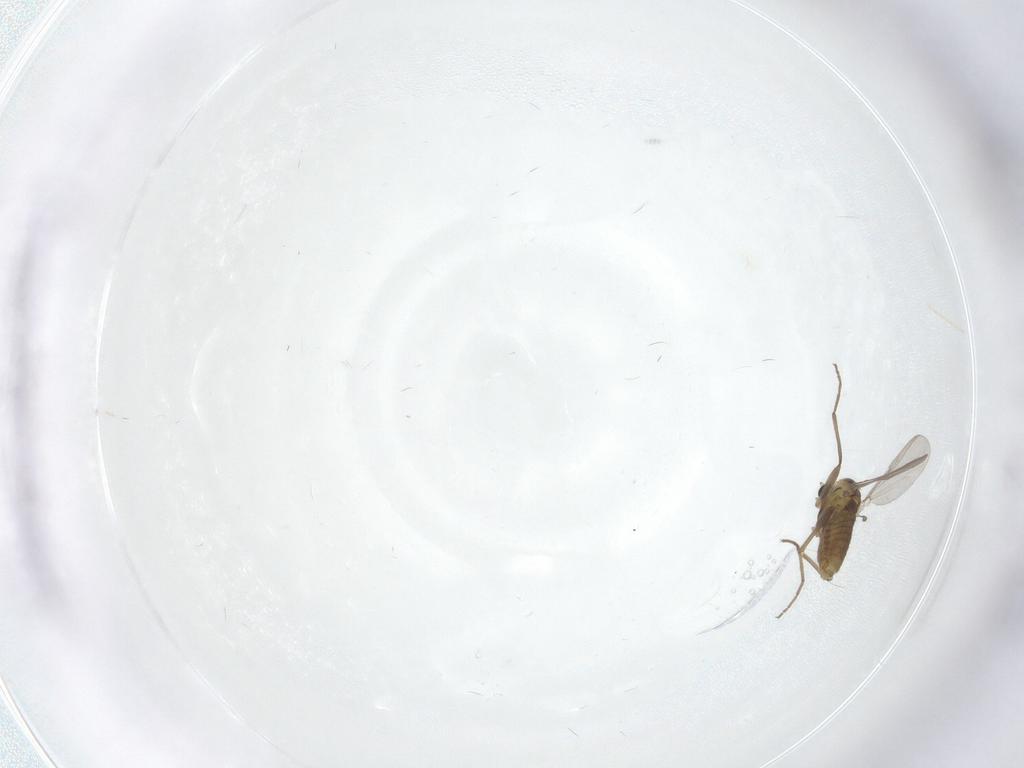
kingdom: Animalia
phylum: Arthropoda
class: Insecta
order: Diptera
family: Chironomidae
